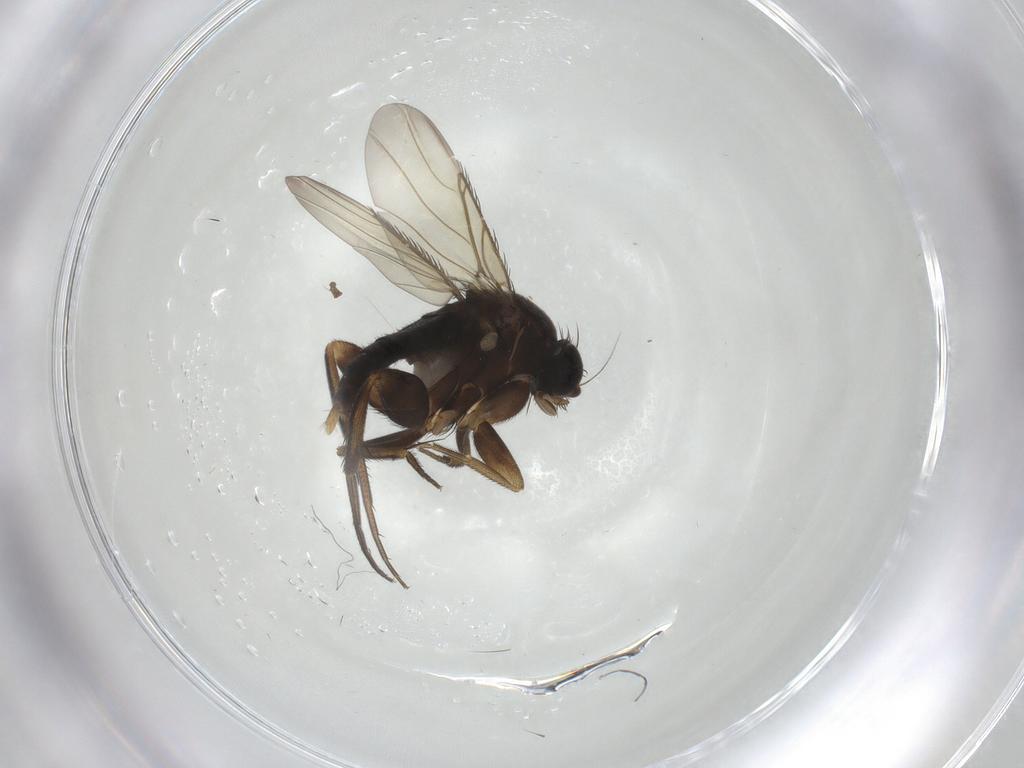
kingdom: Animalia
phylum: Arthropoda
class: Insecta
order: Diptera
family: Phoridae
